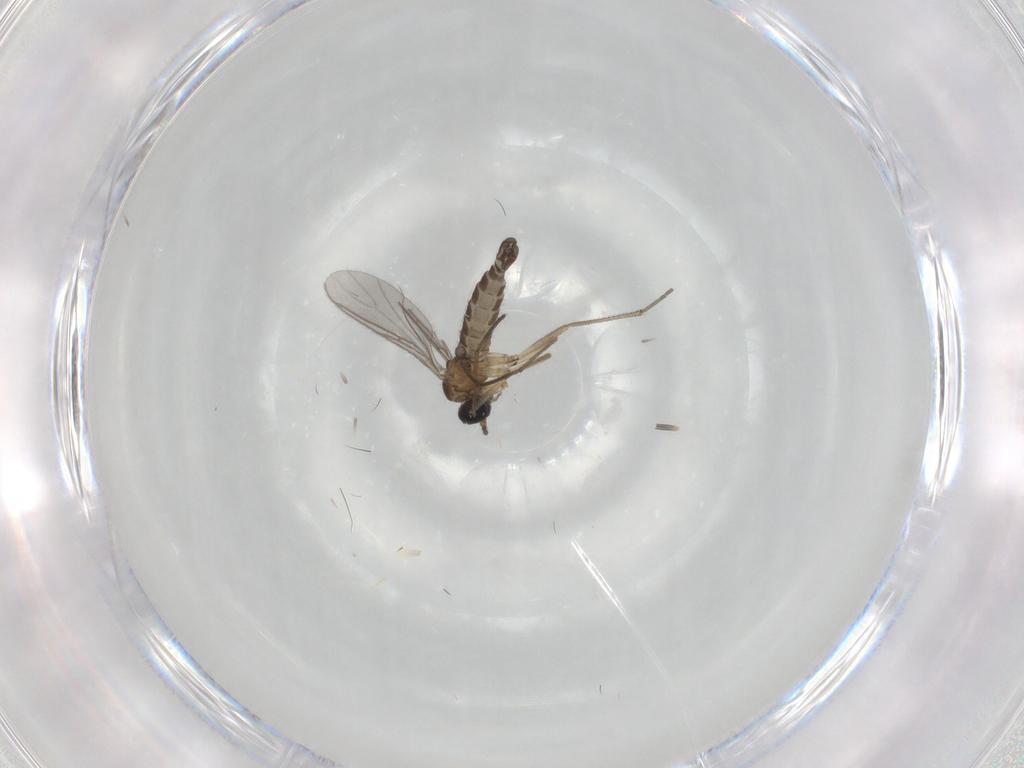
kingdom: Animalia
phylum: Arthropoda
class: Insecta
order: Diptera
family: Sciaridae
